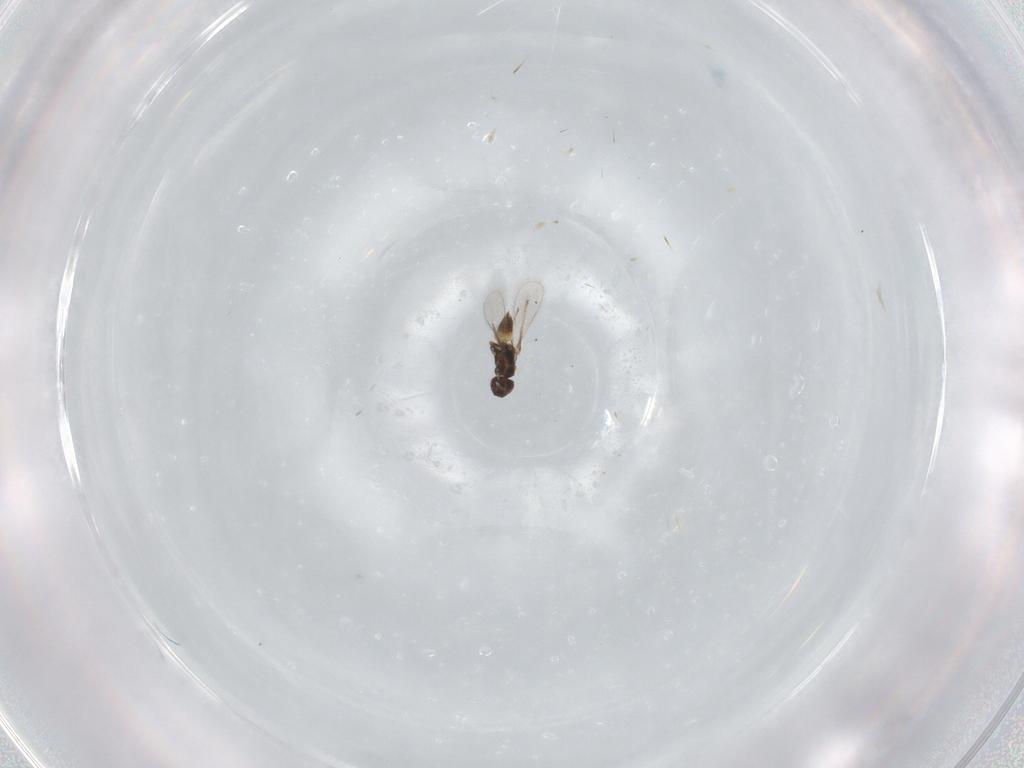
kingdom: Animalia
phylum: Arthropoda
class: Insecta
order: Hymenoptera
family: Mymaridae
